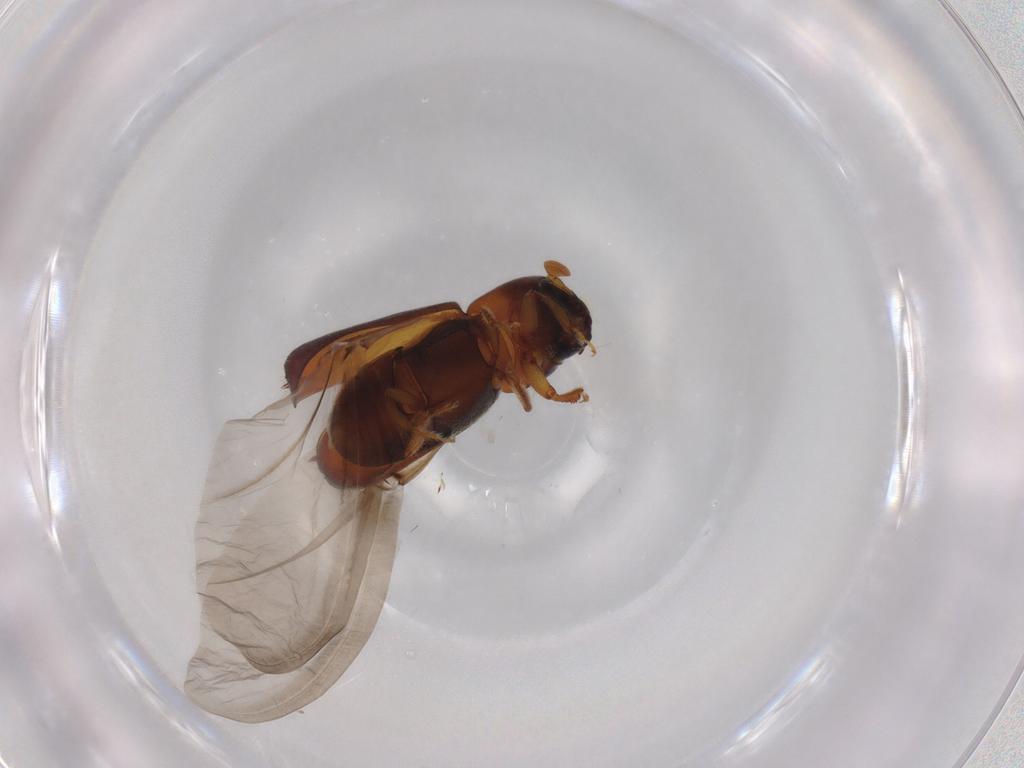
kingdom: Animalia
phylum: Arthropoda
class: Insecta
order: Coleoptera
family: Curculionidae
